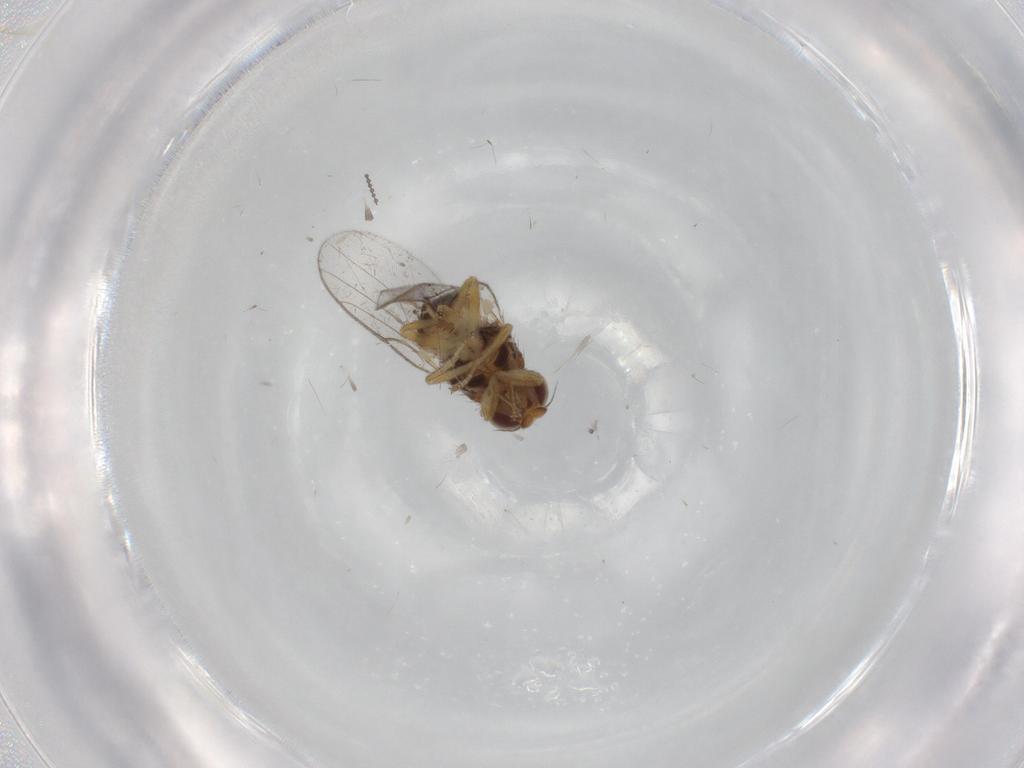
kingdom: Animalia
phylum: Arthropoda
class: Insecta
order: Diptera
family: Chloropidae
